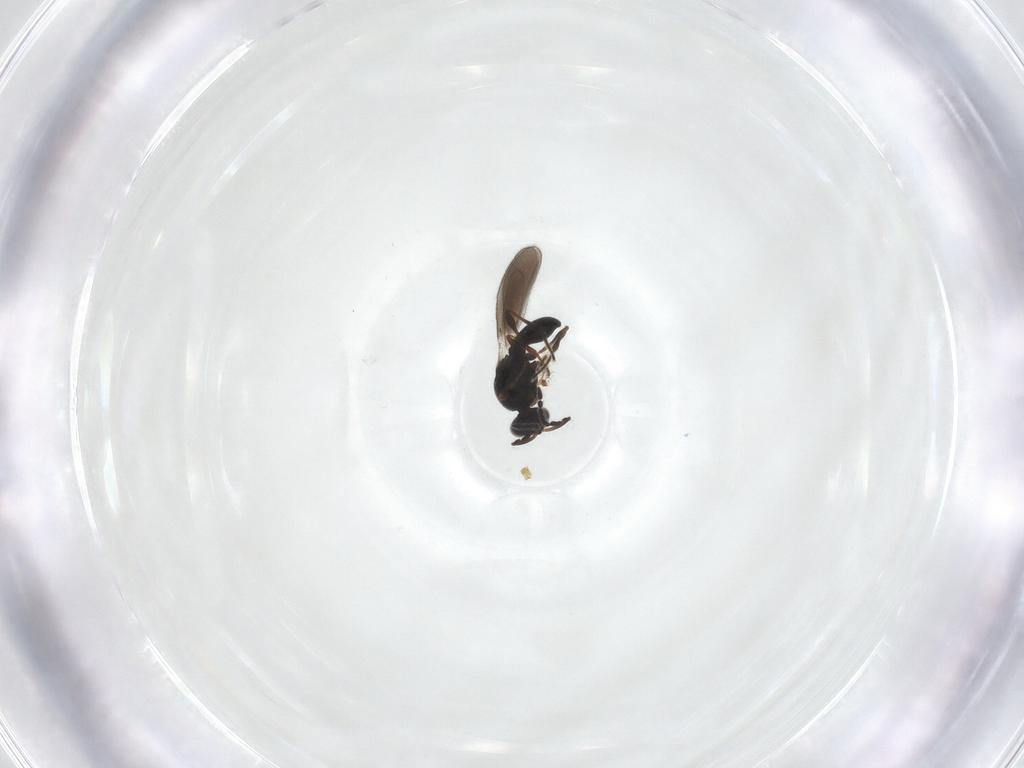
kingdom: Animalia
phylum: Arthropoda
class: Insecta
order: Hymenoptera
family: Platygastridae
